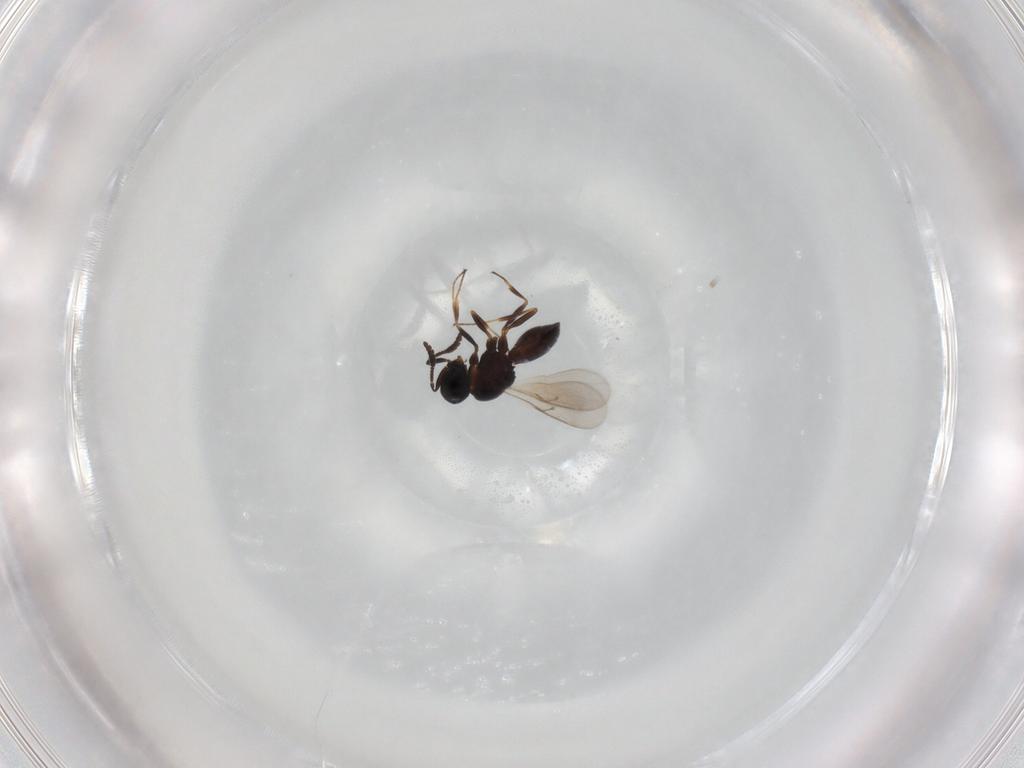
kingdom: Animalia
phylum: Arthropoda
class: Insecta
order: Hymenoptera
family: Scelionidae
